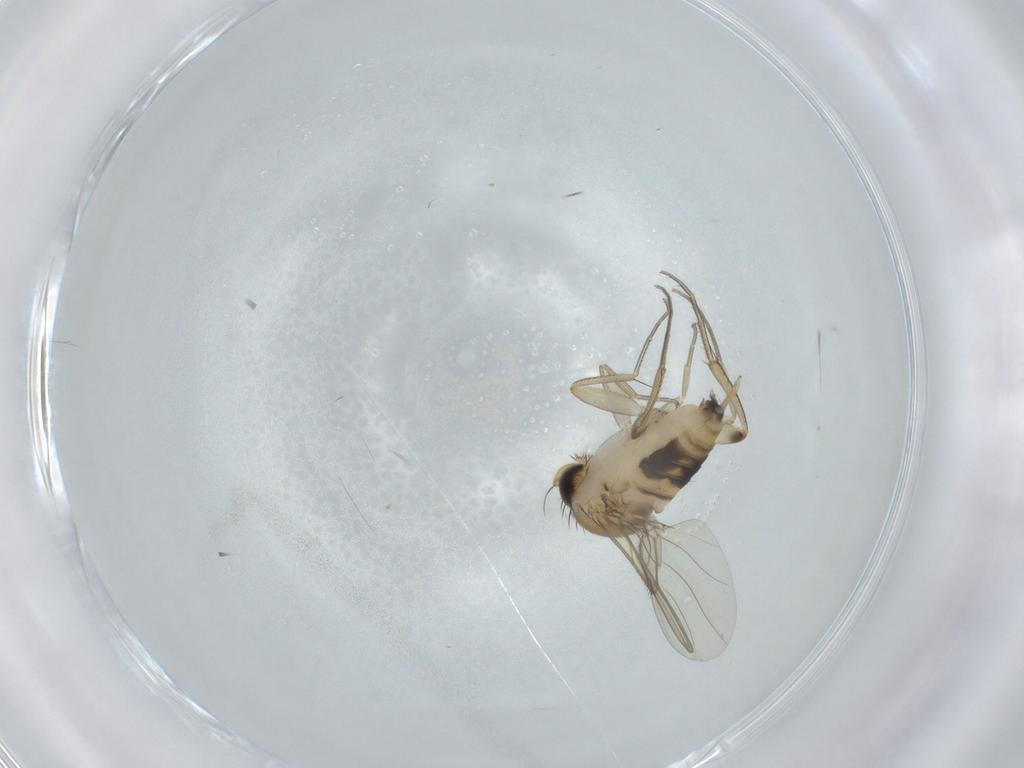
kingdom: Animalia
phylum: Arthropoda
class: Insecta
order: Diptera
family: Phoridae
